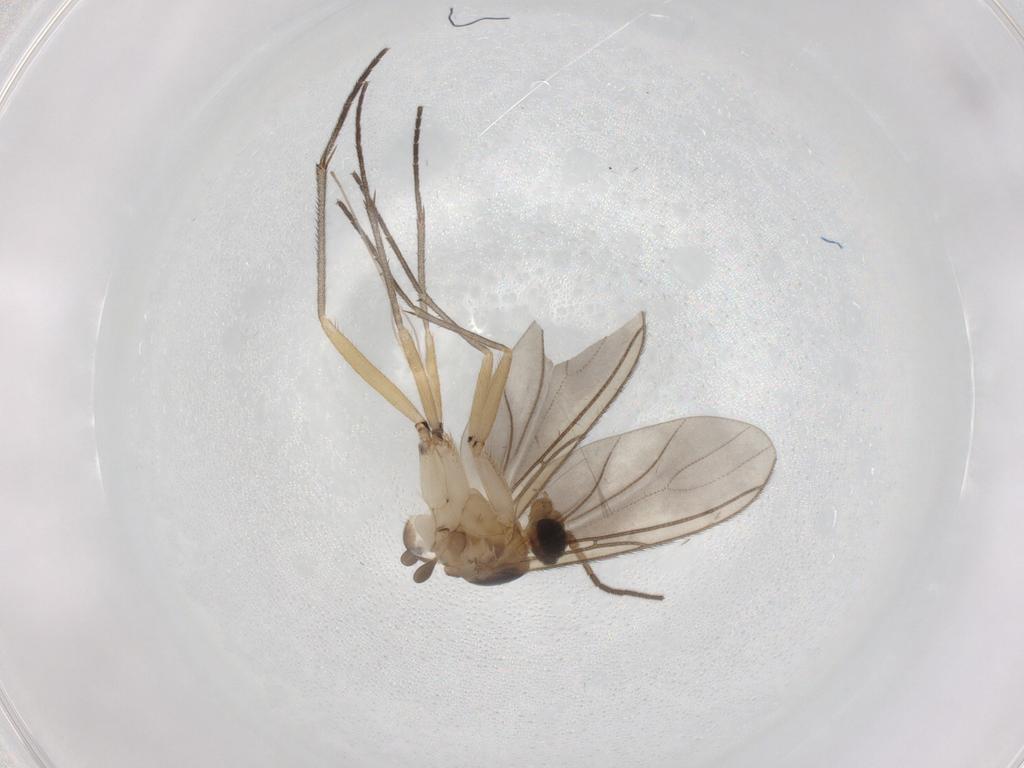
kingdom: Animalia
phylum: Arthropoda
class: Insecta
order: Diptera
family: Sciaridae
